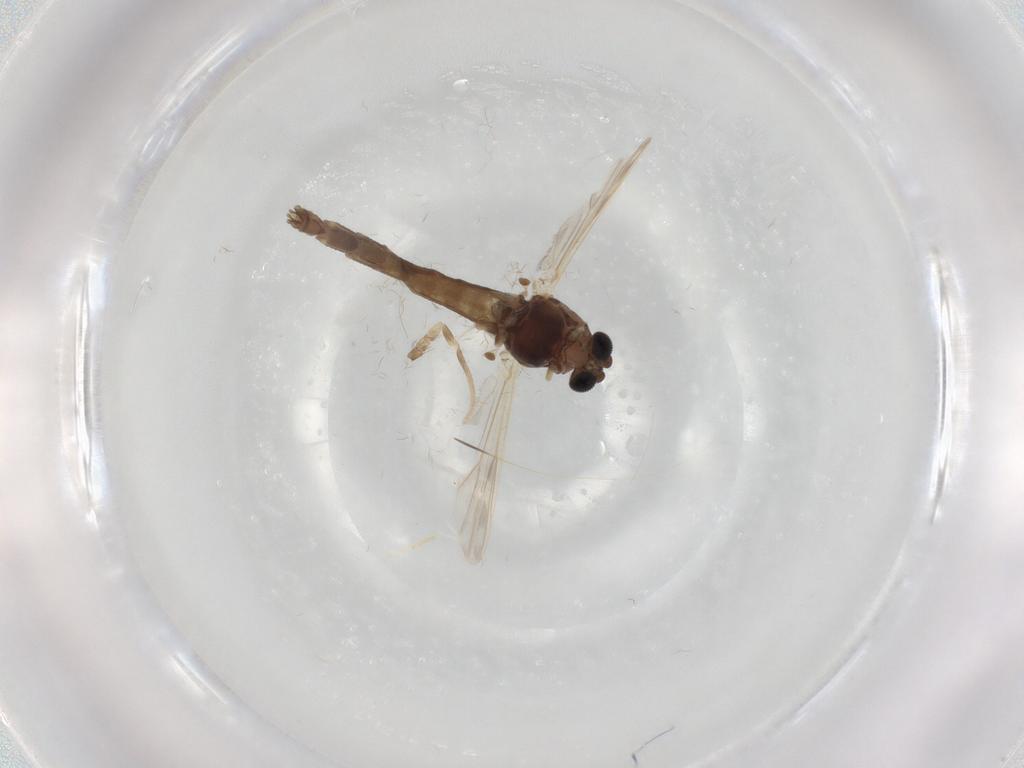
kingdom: Animalia
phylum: Arthropoda
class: Insecta
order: Diptera
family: Chironomidae
